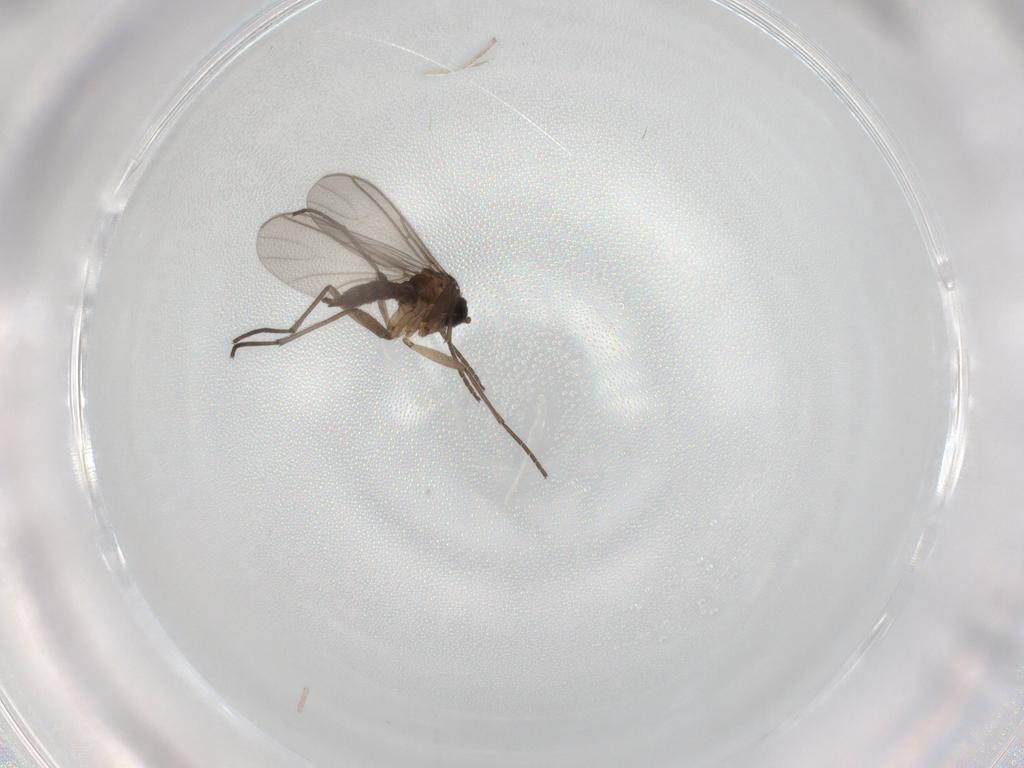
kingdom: Animalia
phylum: Arthropoda
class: Insecta
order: Diptera
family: Sciaridae
